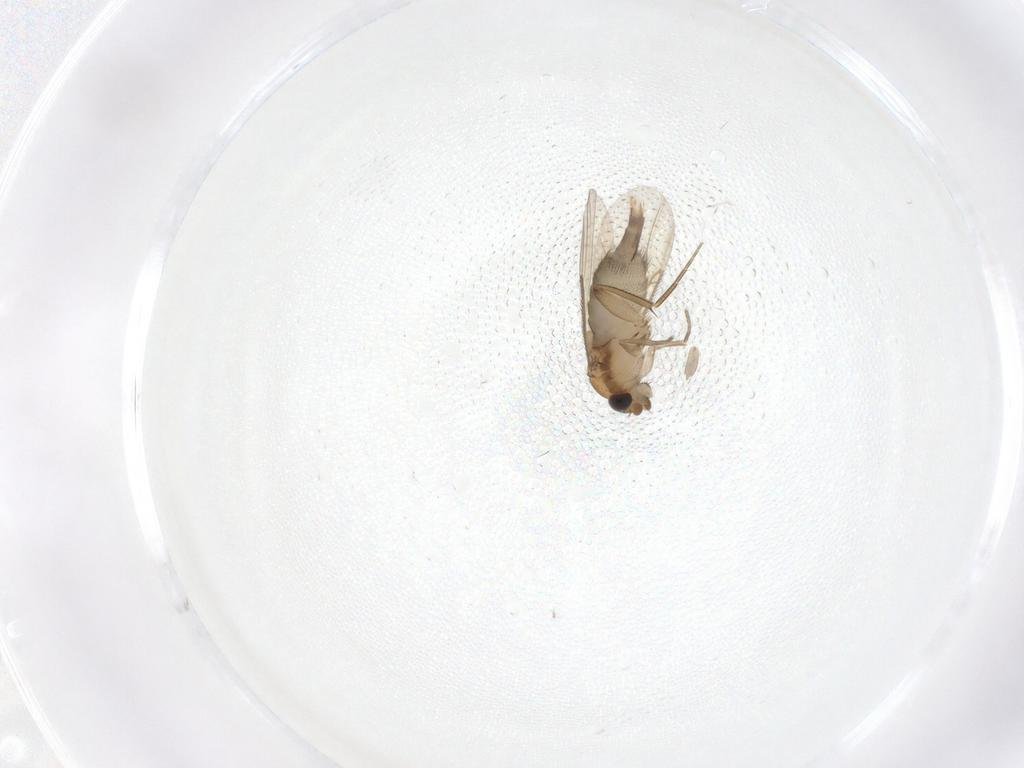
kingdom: Animalia
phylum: Arthropoda
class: Insecta
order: Diptera
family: Phoridae
